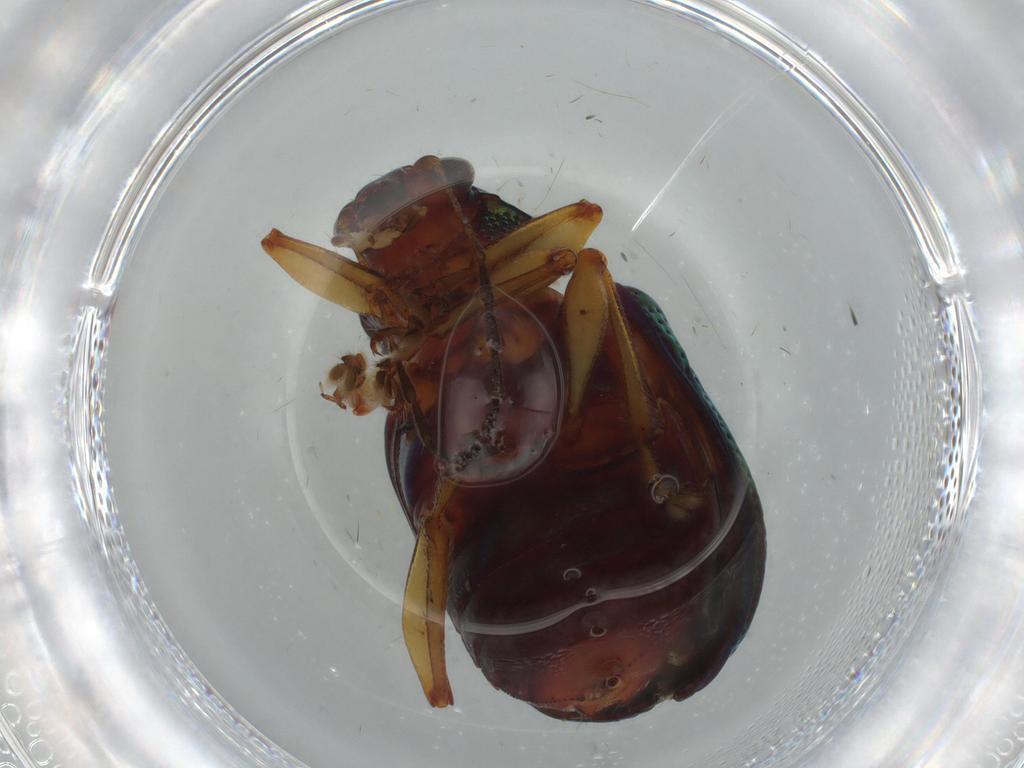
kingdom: Animalia
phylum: Arthropoda
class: Insecta
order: Coleoptera
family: Chrysomelidae
